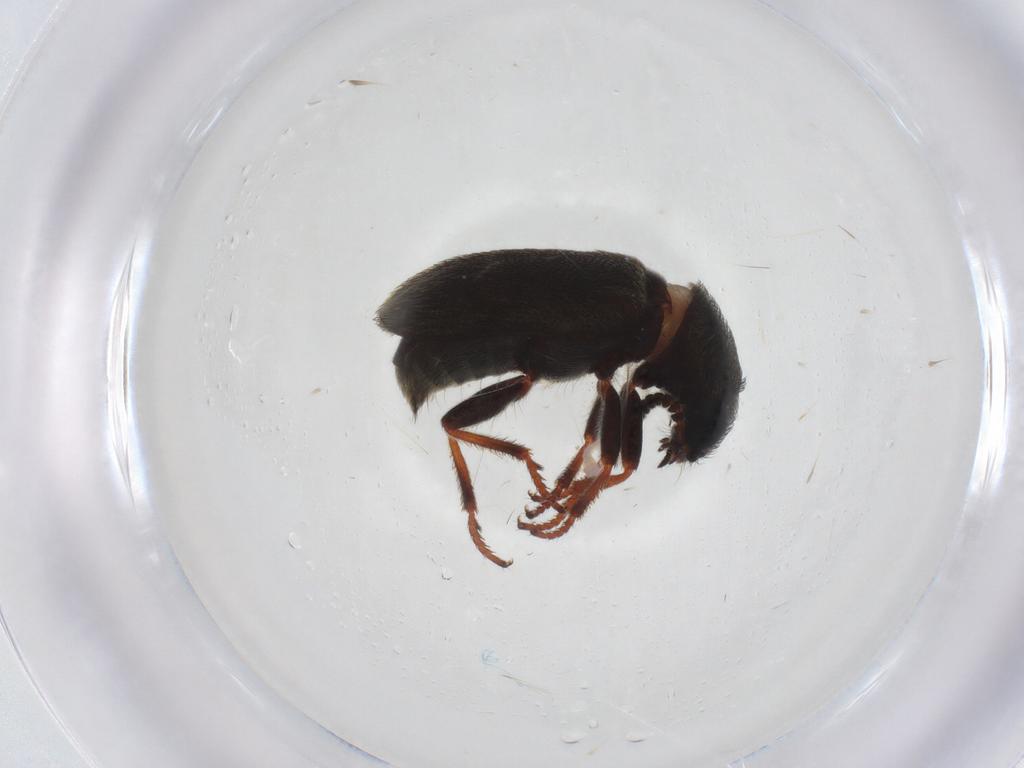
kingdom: Animalia
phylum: Arthropoda
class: Insecta
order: Coleoptera
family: Melyridae
